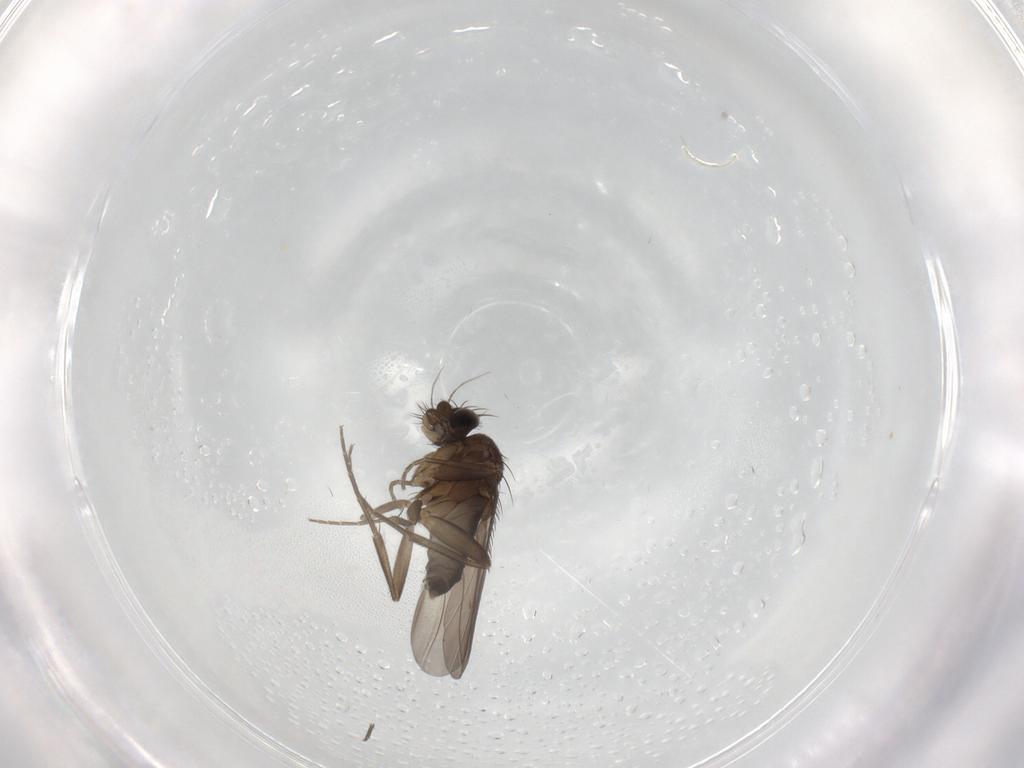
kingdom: Animalia
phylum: Arthropoda
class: Insecta
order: Diptera
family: Phoridae
